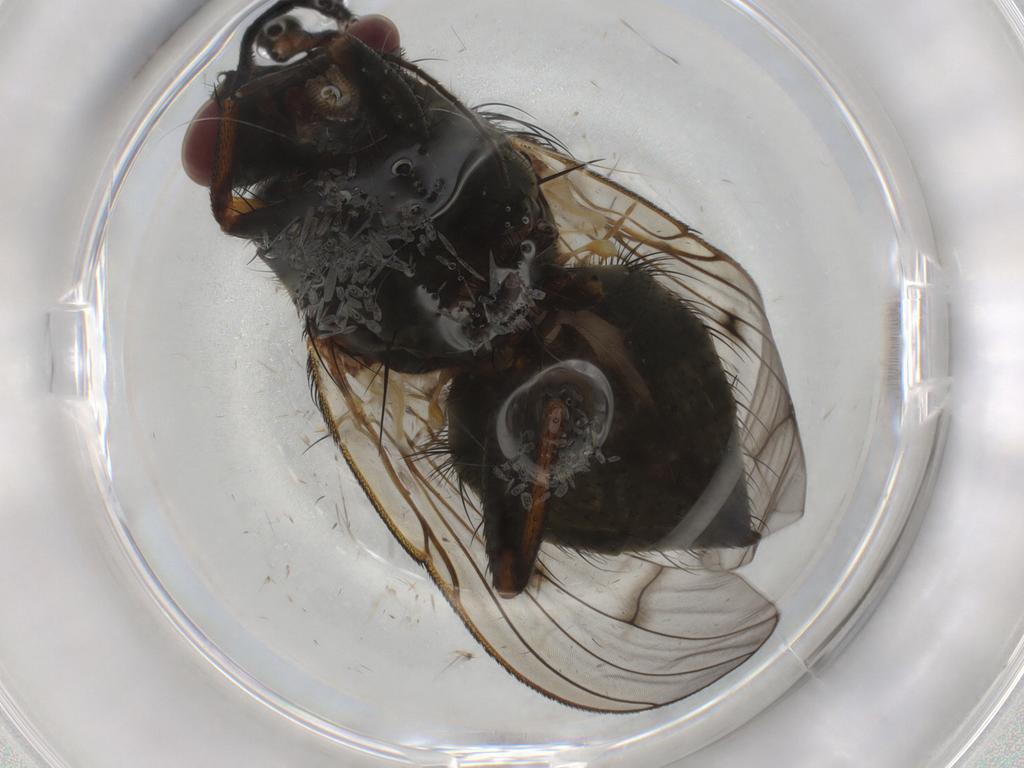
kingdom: Animalia
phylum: Arthropoda
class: Insecta
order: Diptera
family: Muscidae
